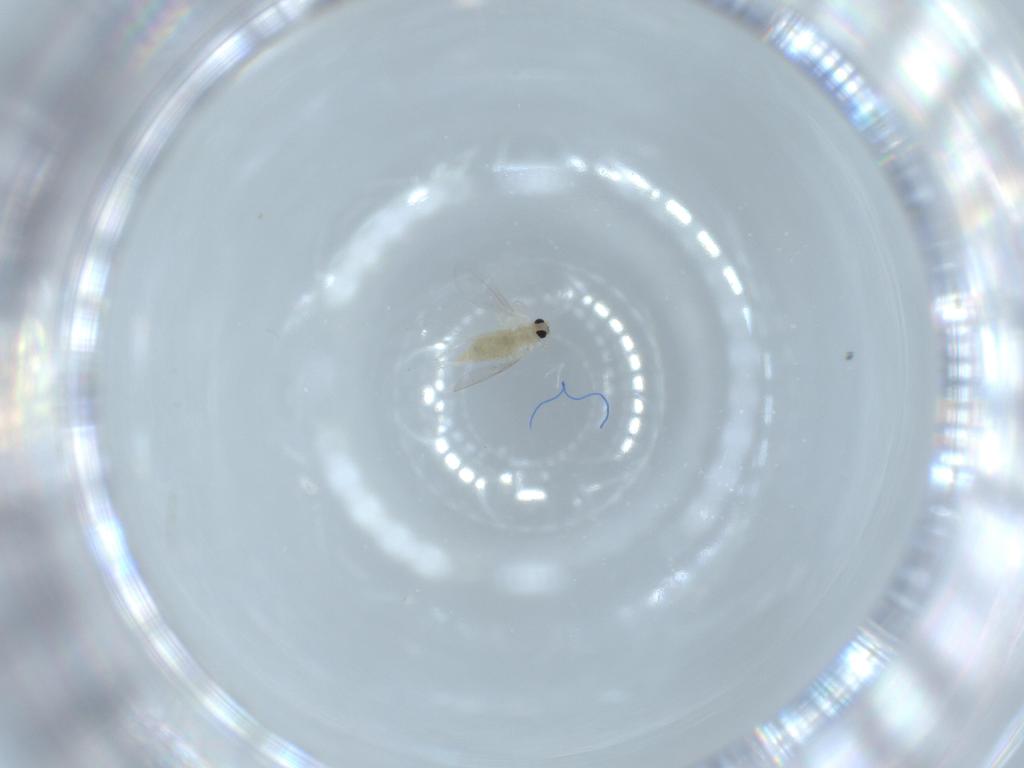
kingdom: Animalia
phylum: Arthropoda
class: Insecta
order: Diptera
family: Cecidomyiidae
